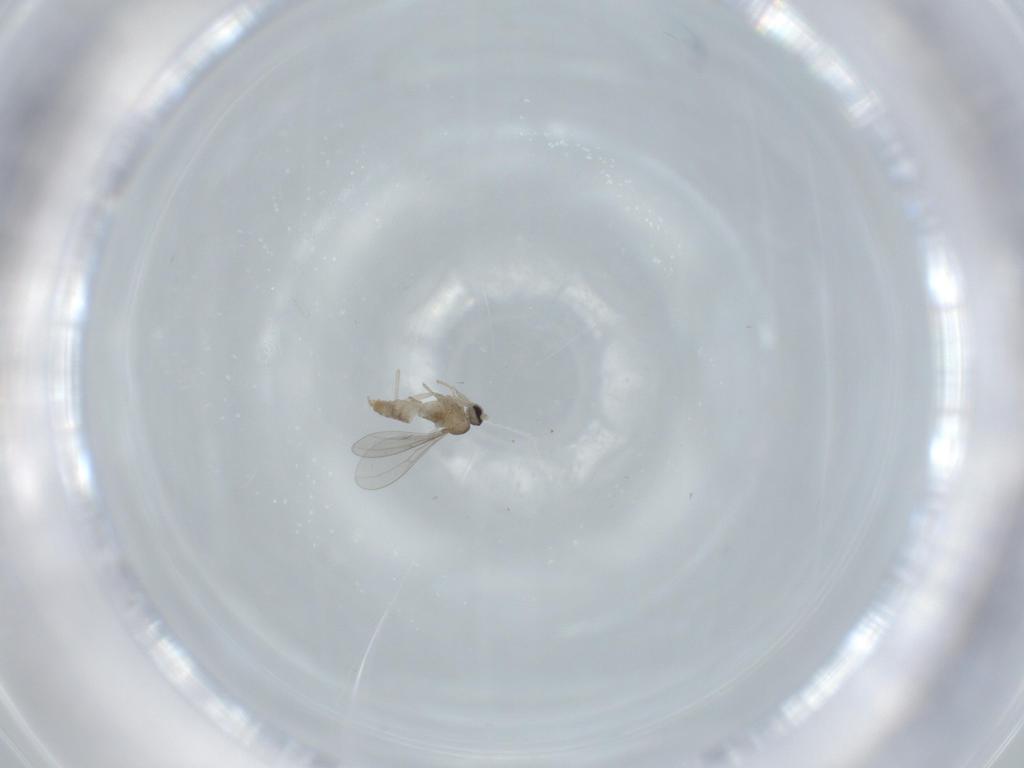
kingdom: Animalia
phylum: Arthropoda
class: Insecta
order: Diptera
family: Cecidomyiidae
